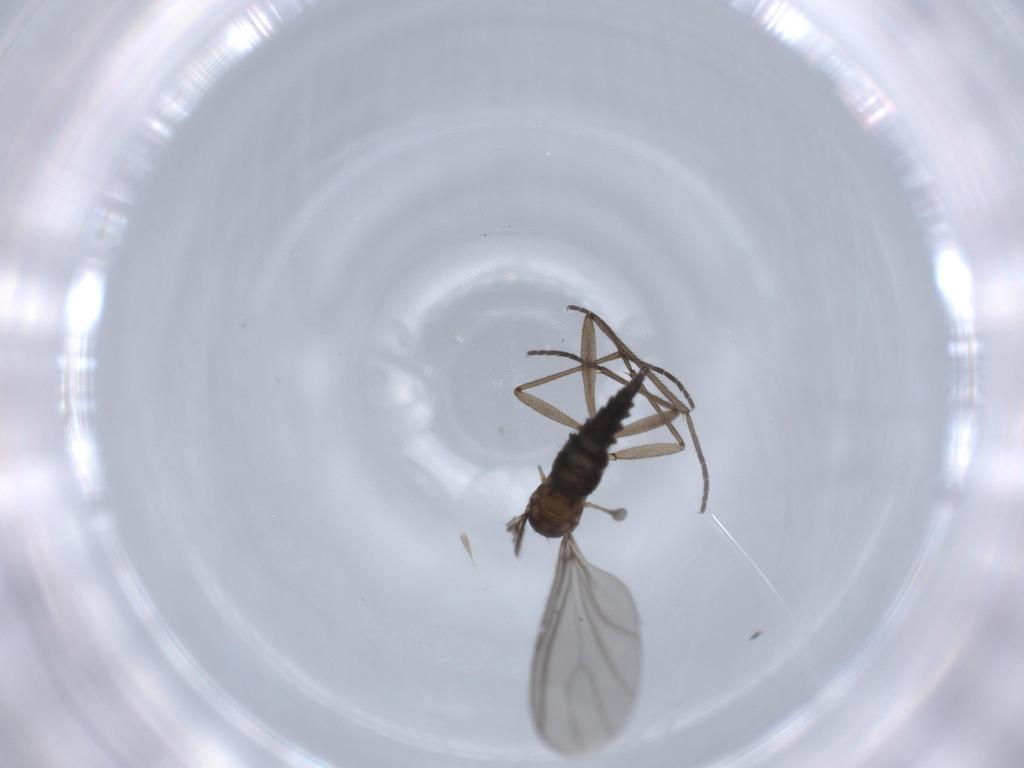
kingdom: Animalia
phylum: Arthropoda
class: Insecta
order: Diptera
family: Sciaridae
